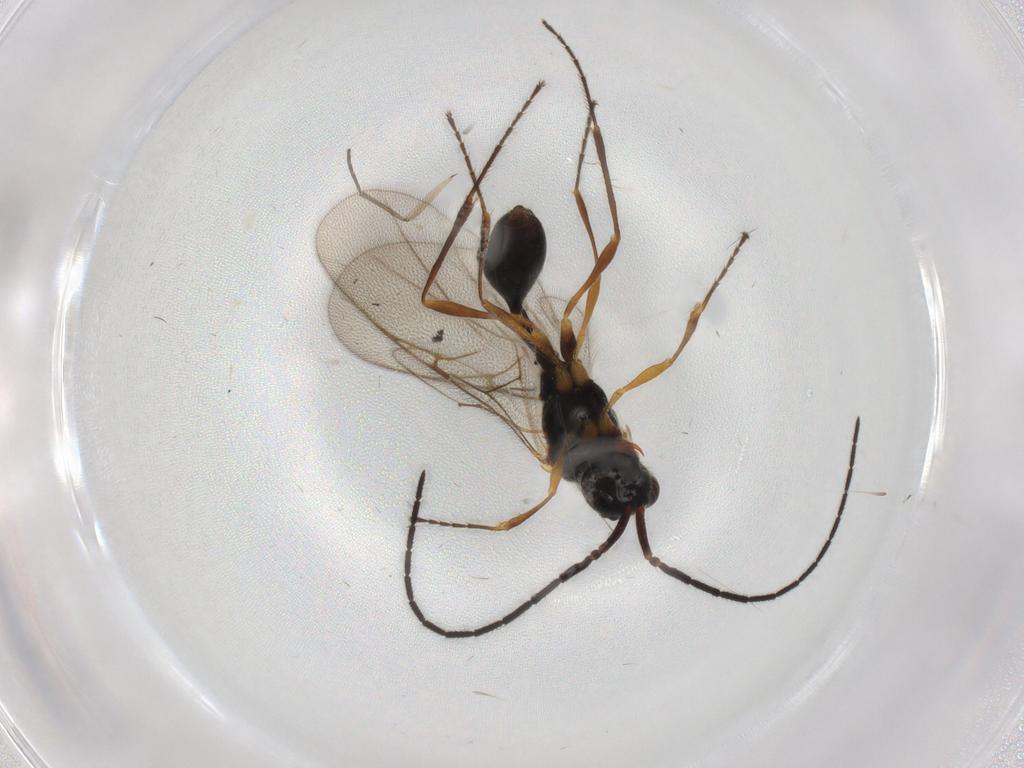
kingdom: Animalia
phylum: Arthropoda
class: Insecta
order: Hymenoptera
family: Diapriidae
